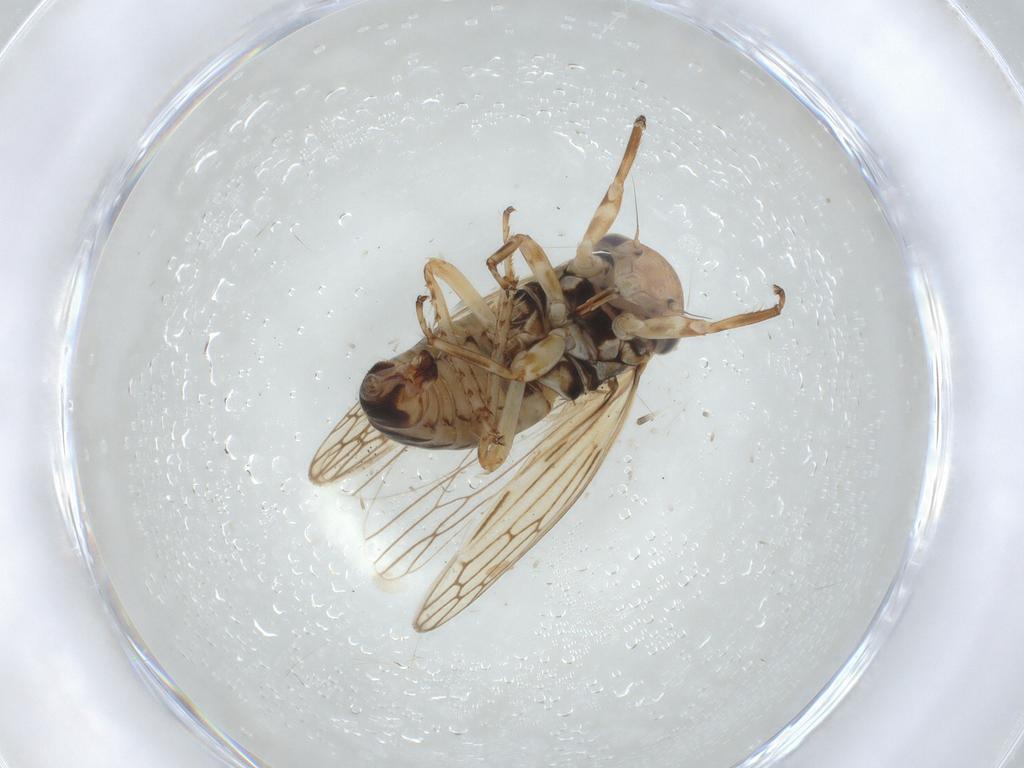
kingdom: Animalia
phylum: Arthropoda
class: Insecta
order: Hemiptera
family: Cicadellidae
